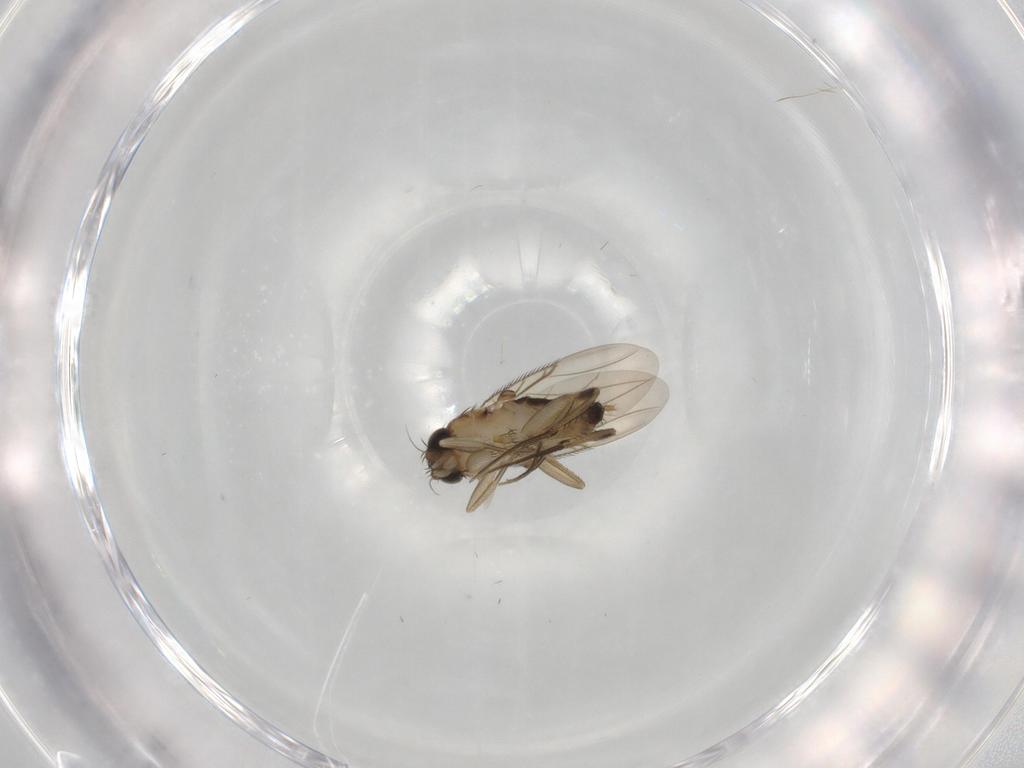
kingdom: Animalia
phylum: Arthropoda
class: Insecta
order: Diptera
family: Phoridae
